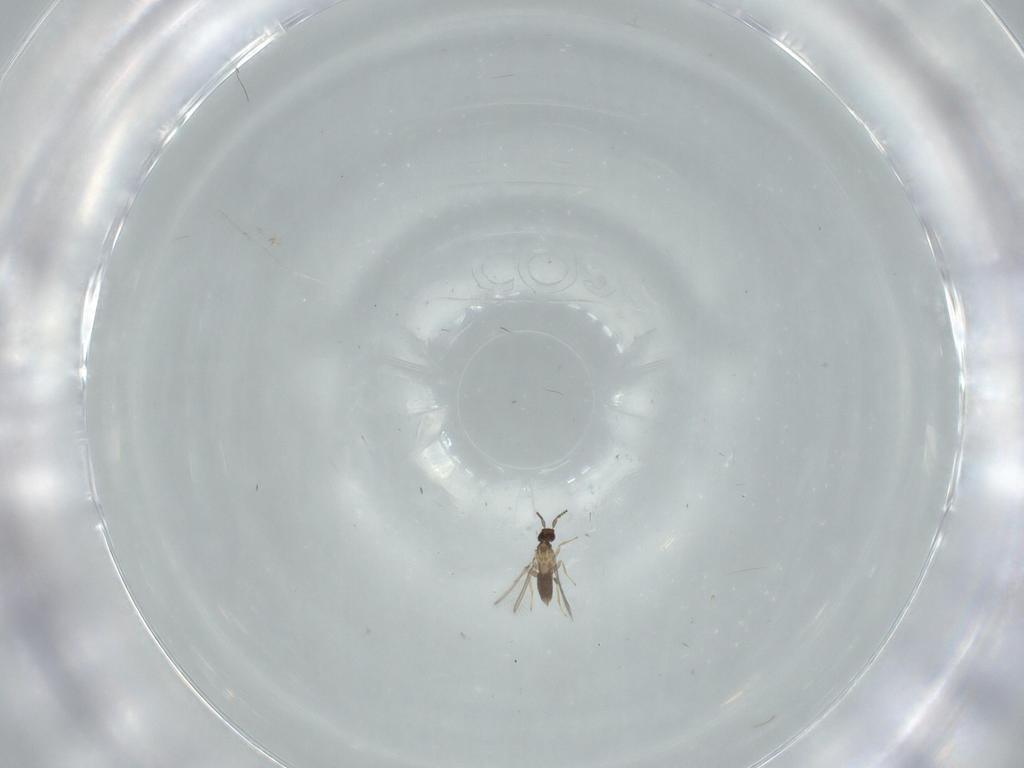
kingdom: Animalia
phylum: Arthropoda
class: Insecta
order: Hymenoptera
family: Mymaridae
